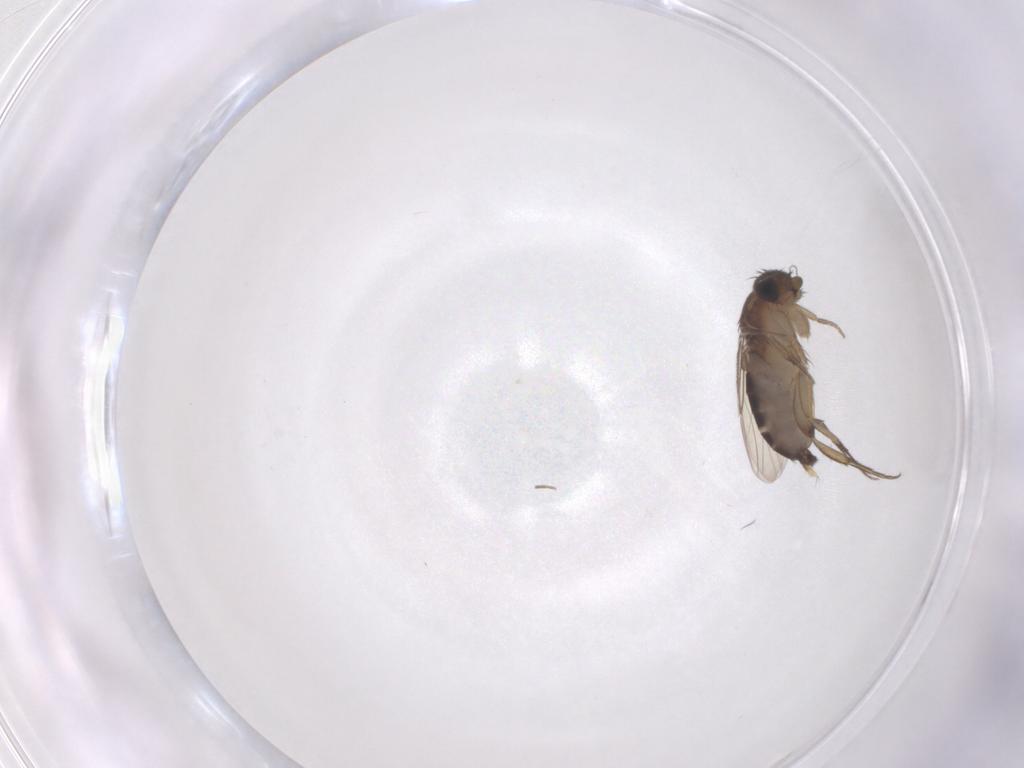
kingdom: Animalia
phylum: Arthropoda
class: Insecta
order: Diptera
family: Phoridae
